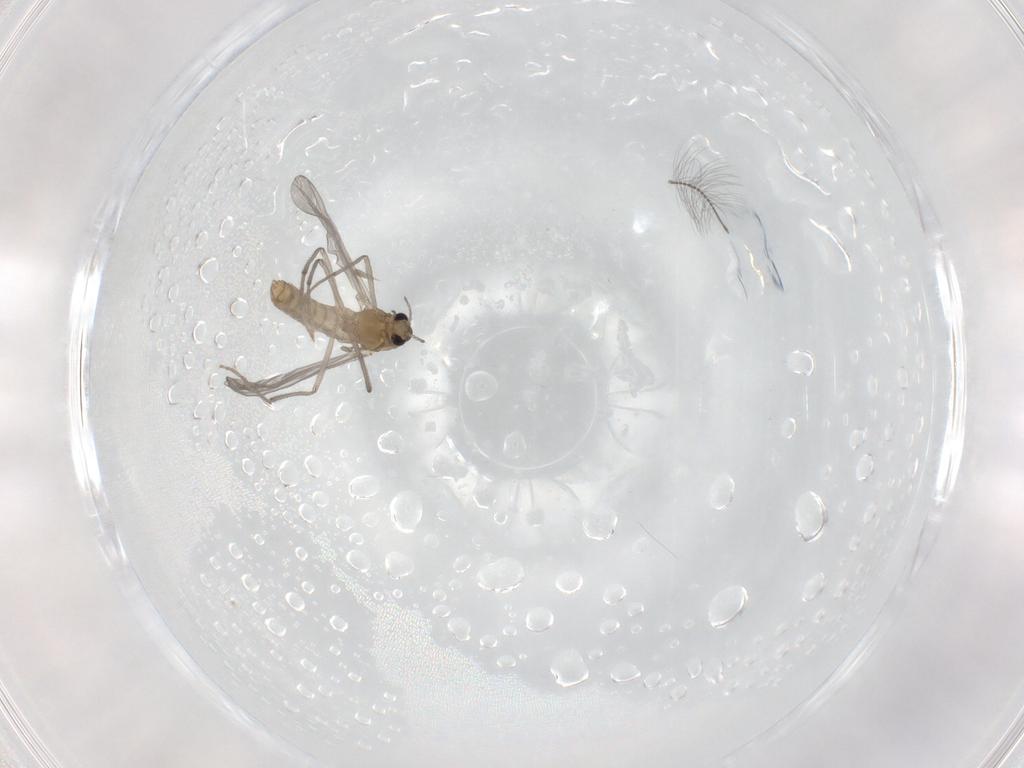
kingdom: Animalia
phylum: Arthropoda
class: Insecta
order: Diptera
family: Chironomidae
